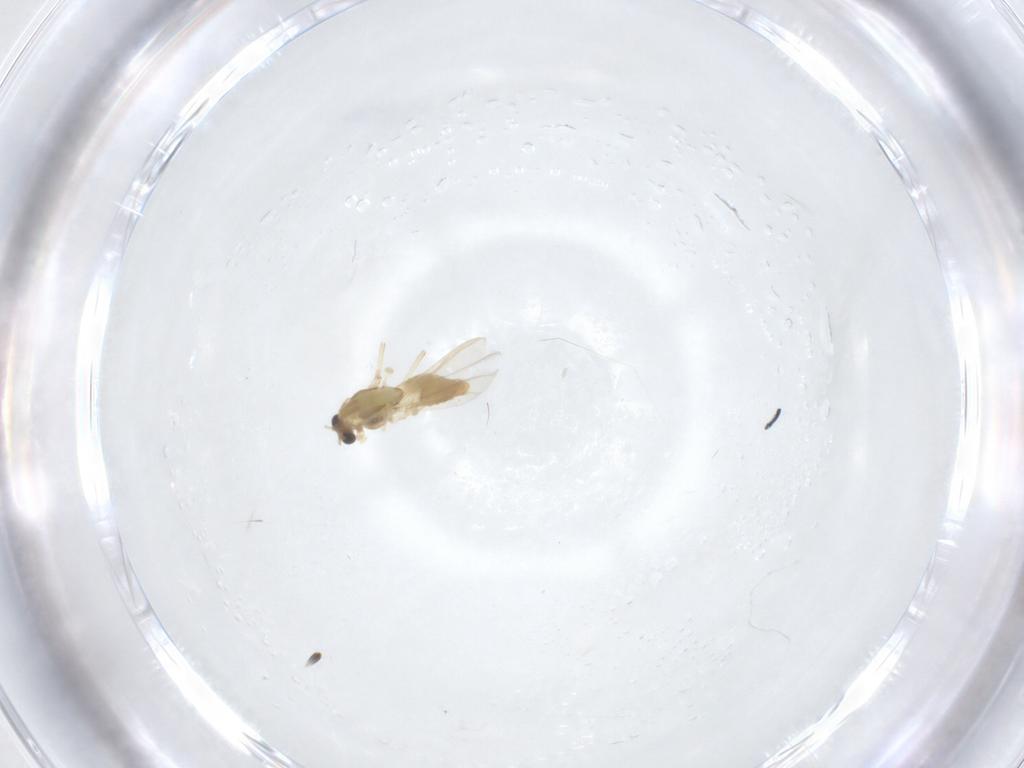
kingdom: Animalia
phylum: Arthropoda
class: Insecta
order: Diptera
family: Chironomidae
